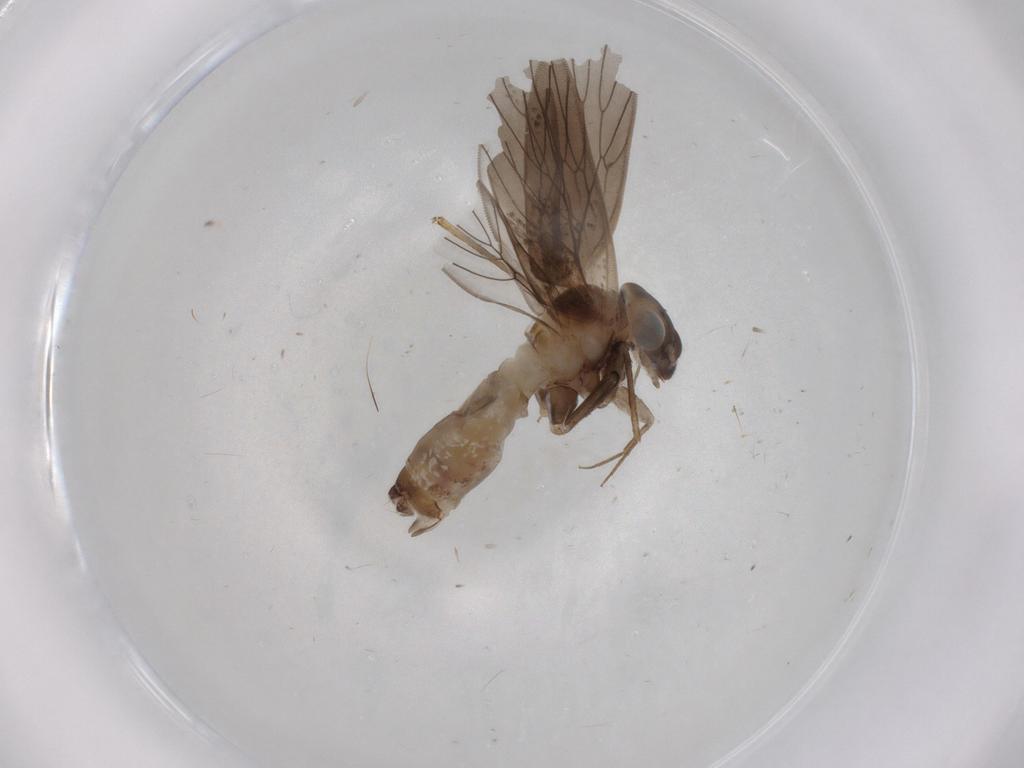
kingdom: Animalia
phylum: Arthropoda
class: Insecta
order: Psocodea
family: Lepidopsocidae
